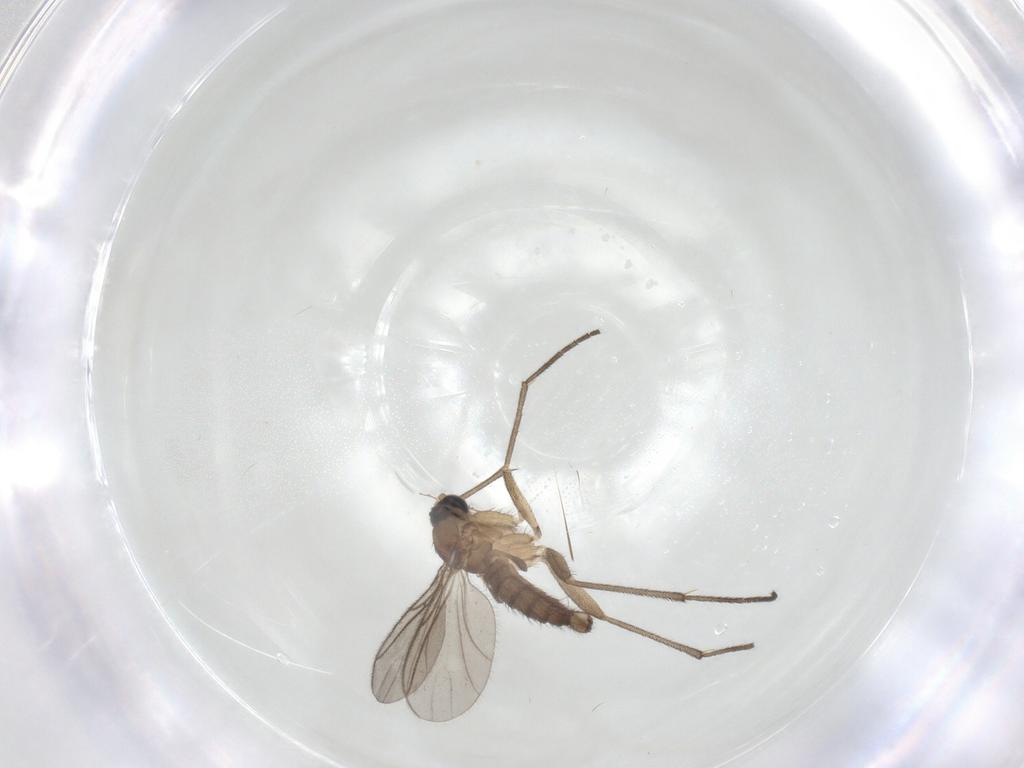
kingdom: Animalia
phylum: Arthropoda
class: Insecta
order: Diptera
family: Sciaridae
